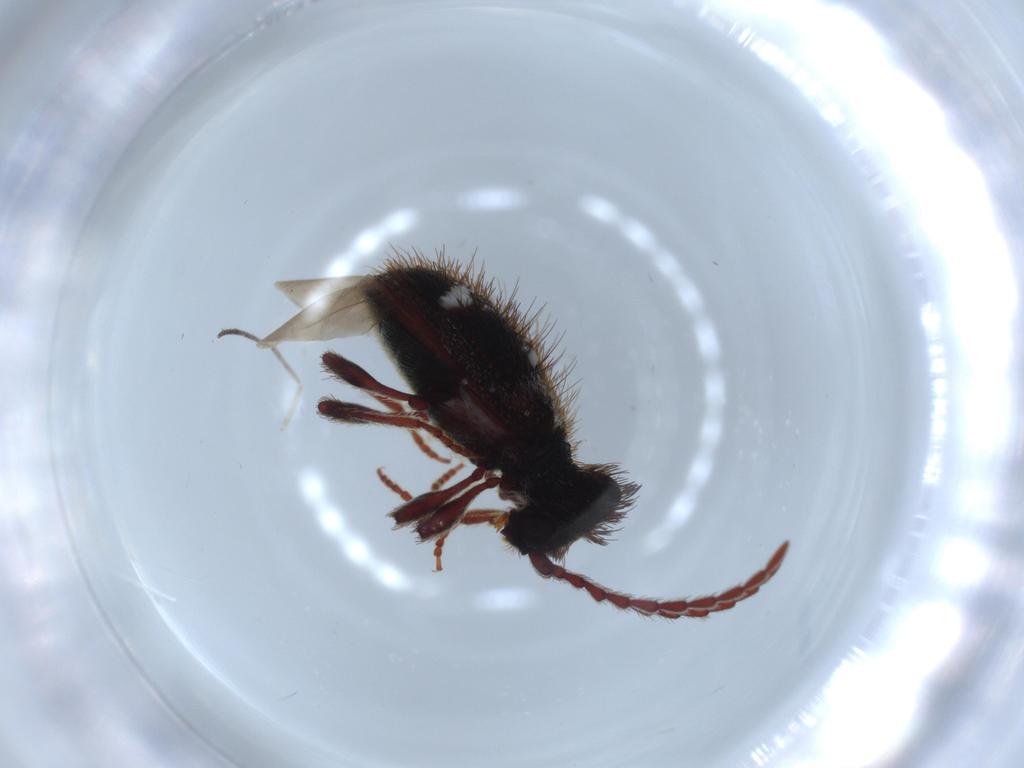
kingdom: Animalia
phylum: Arthropoda
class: Insecta
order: Coleoptera
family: Ptinidae
